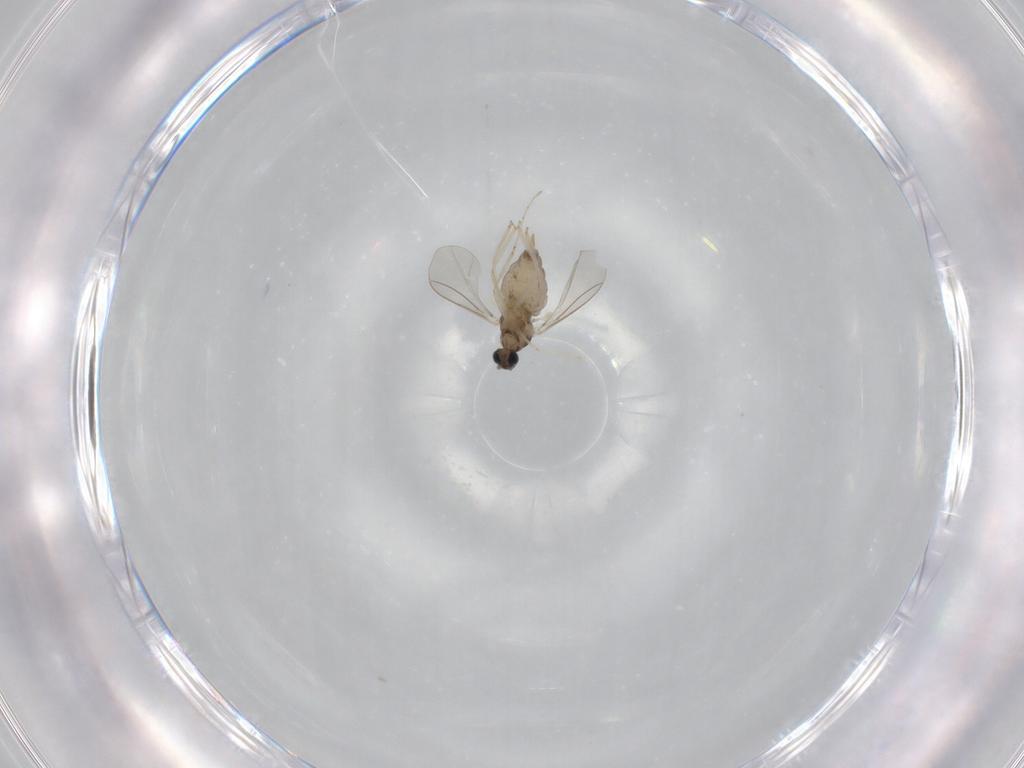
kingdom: Animalia
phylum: Arthropoda
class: Insecta
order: Diptera
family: Cecidomyiidae
